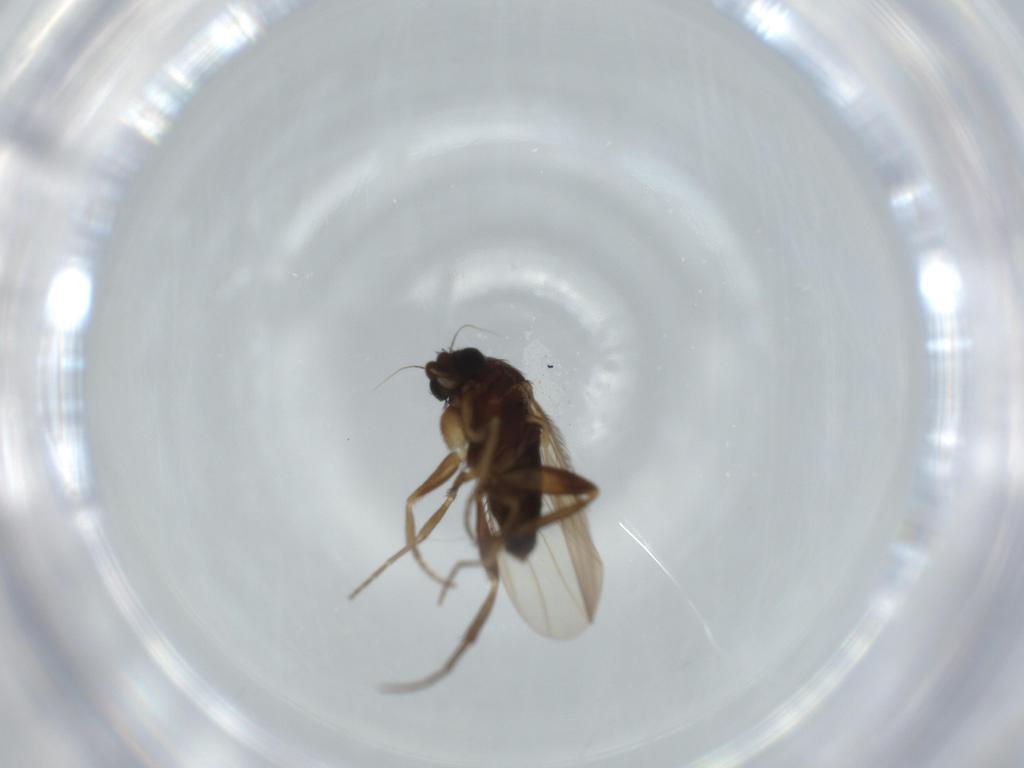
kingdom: Animalia
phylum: Arthropoda
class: Insecta
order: Diptera
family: Phoridae
